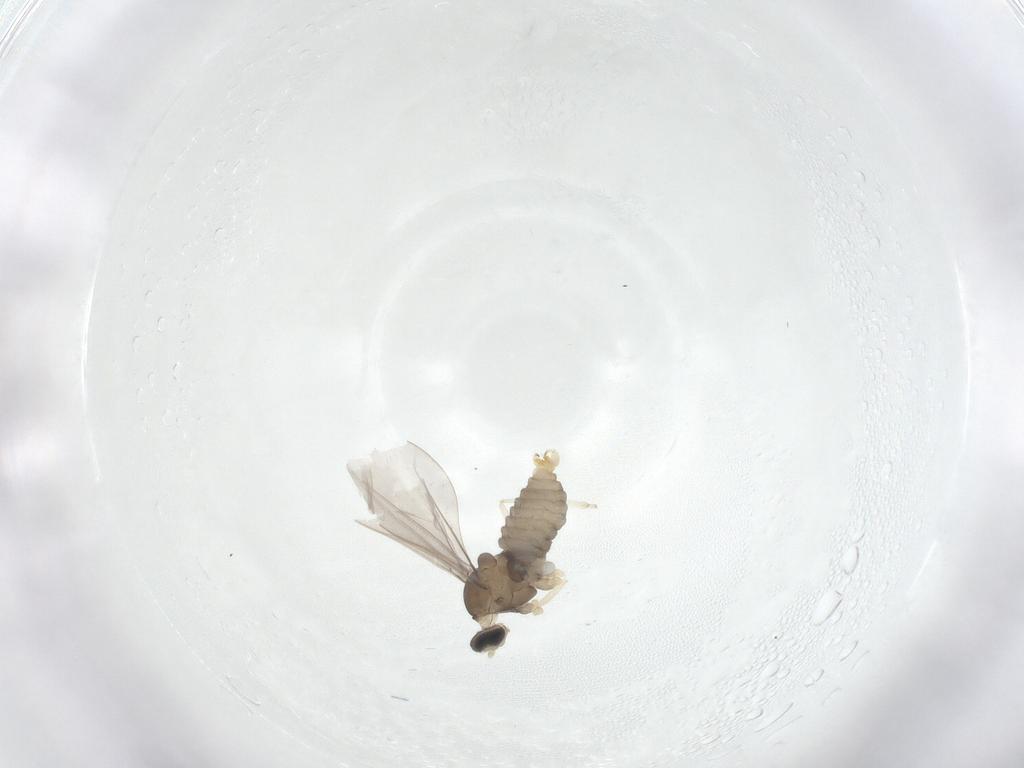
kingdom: Animalia
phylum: Arthropoda
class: Insecta
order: Diptera
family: Cecidomyiidae
